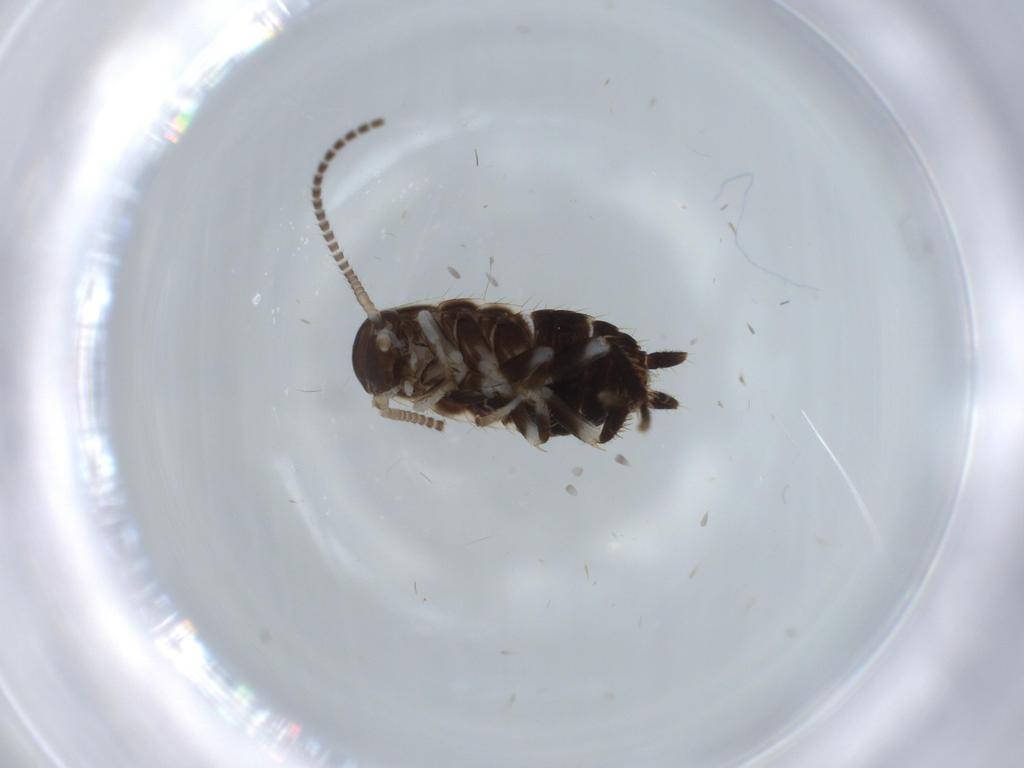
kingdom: Animalia
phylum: Arthropoda
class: Insecta
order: Blattodea
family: Ectobiidae
